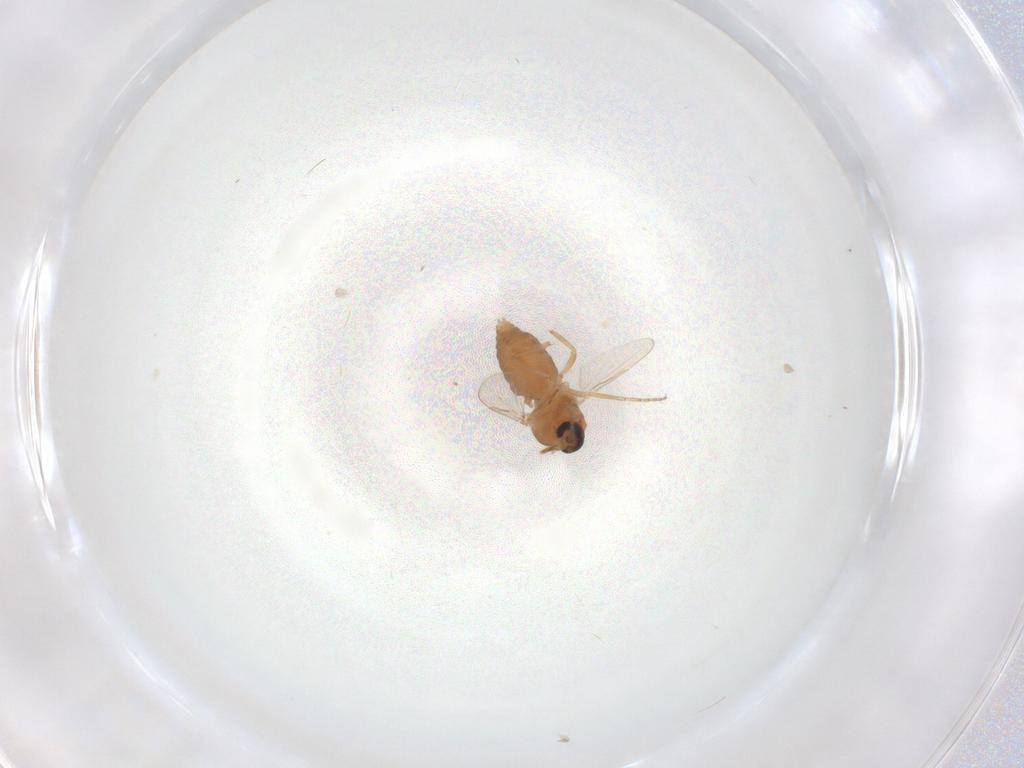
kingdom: Animalia
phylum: Arthropoda
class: Insecta
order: Diptera
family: Ceratopogonidae
